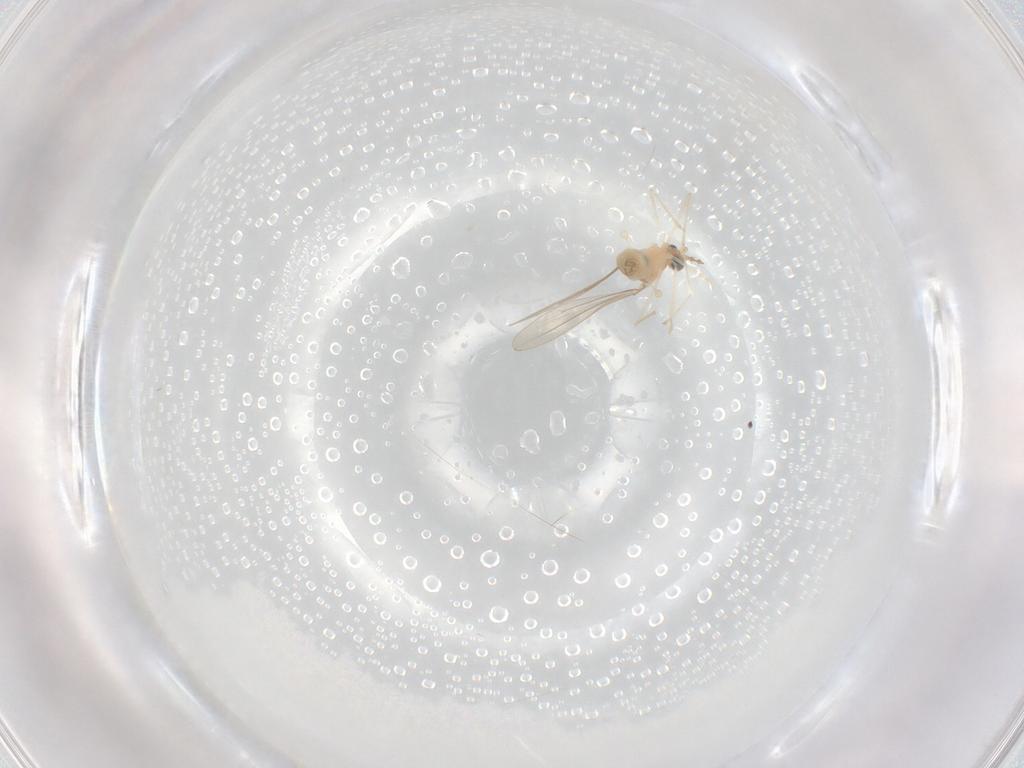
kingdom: Animalia
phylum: Arthropoda
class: Insecta
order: Diptera
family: Cecidomyiidae
